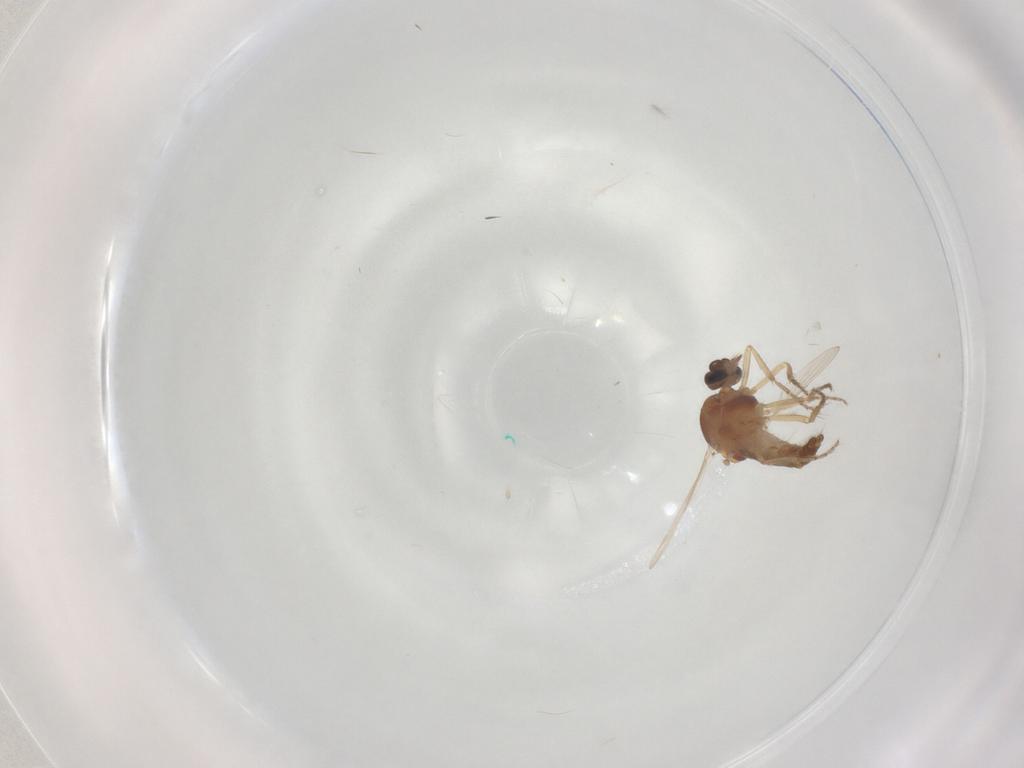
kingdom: Animalia
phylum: Arthropoda
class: Insecta
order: Diptera
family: Ceratopogonidae
